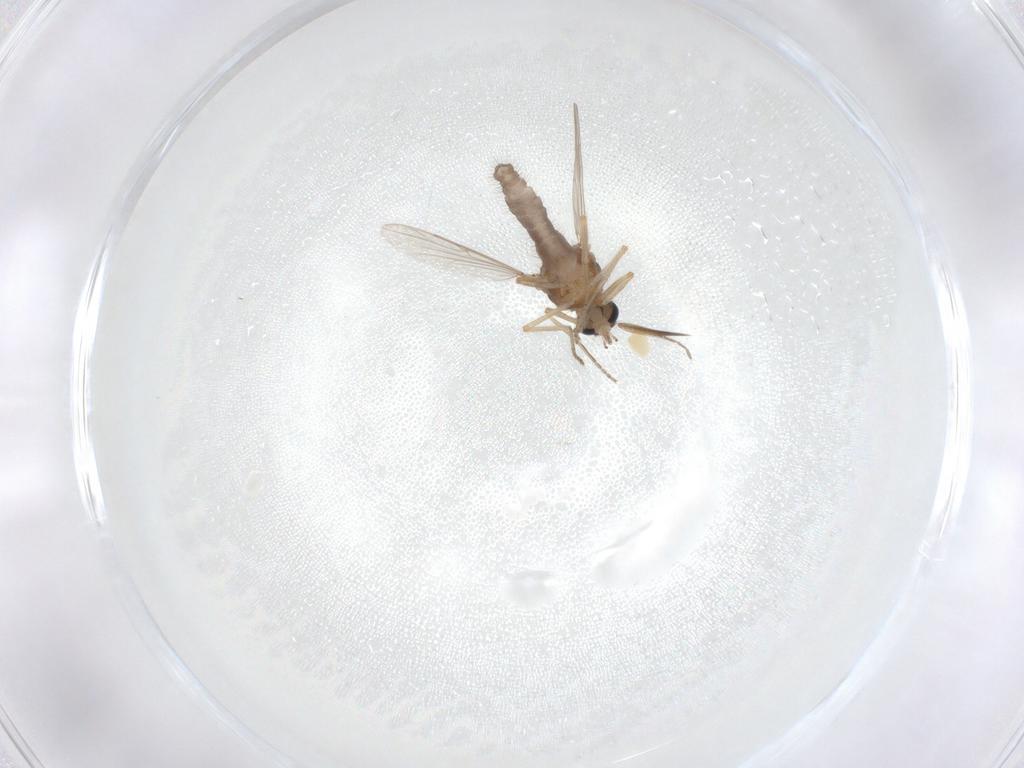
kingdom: Animalia
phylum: Arthropoda
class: Insecta
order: Diptera
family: Ceratopogonidae
